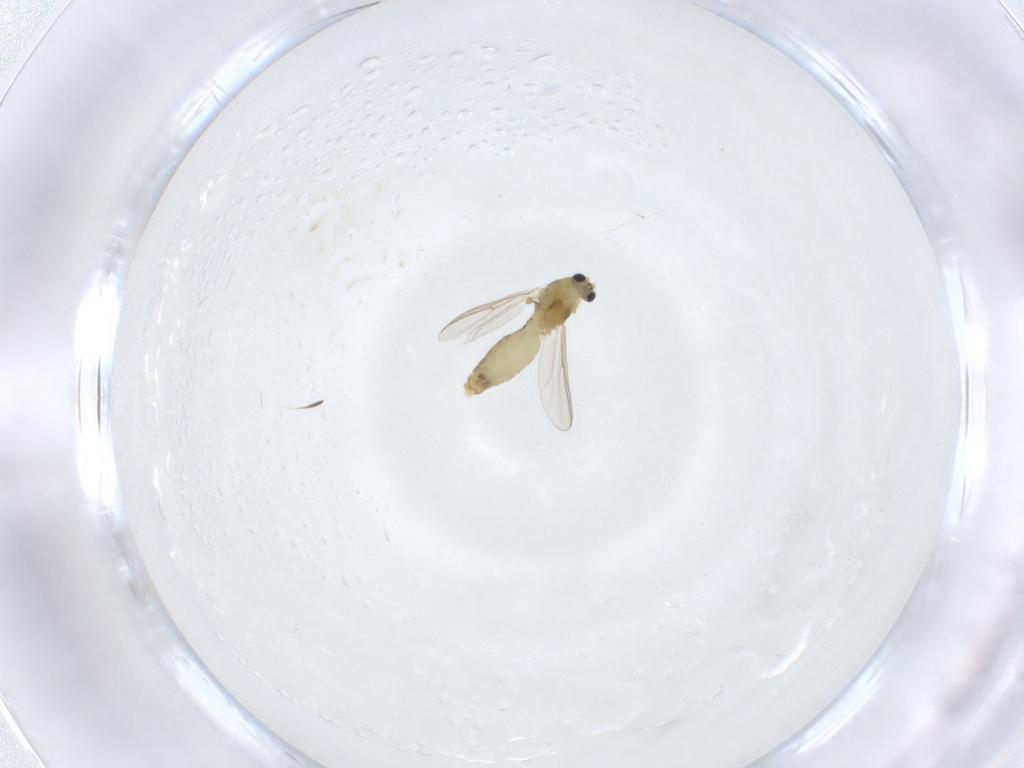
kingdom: Animalia
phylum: Arthropoda
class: Insecta
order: Diptera
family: Chironomidae
